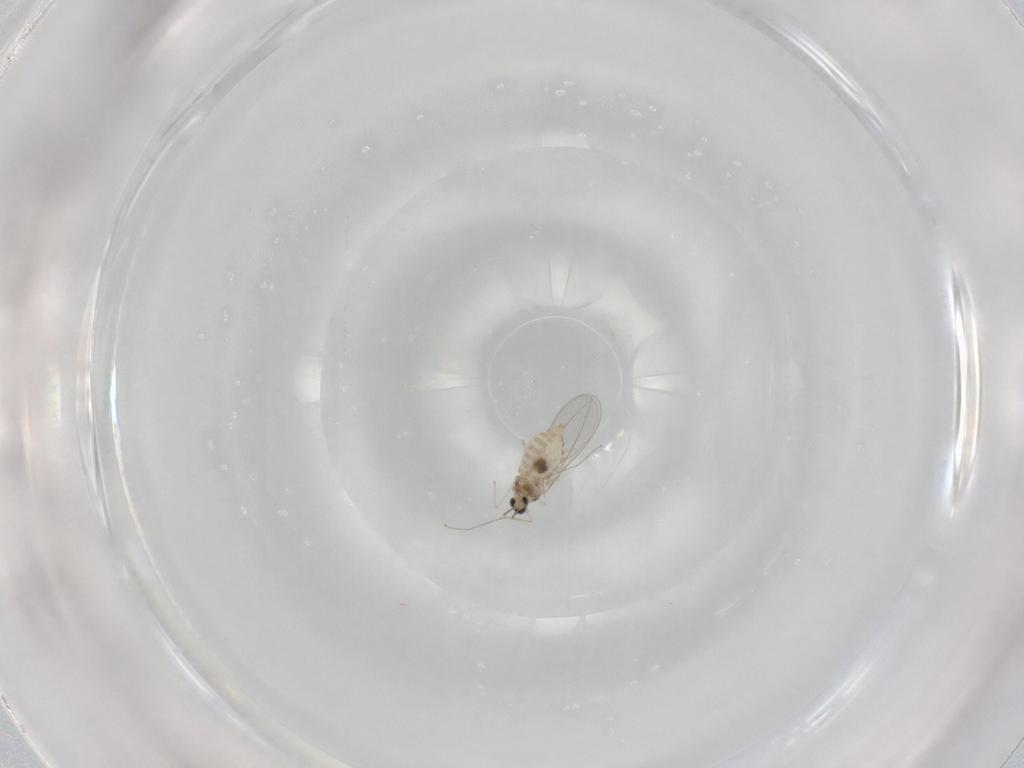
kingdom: Animalia
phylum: Arthropoda
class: Insecta
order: Diptera
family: Cecidomyiidae
